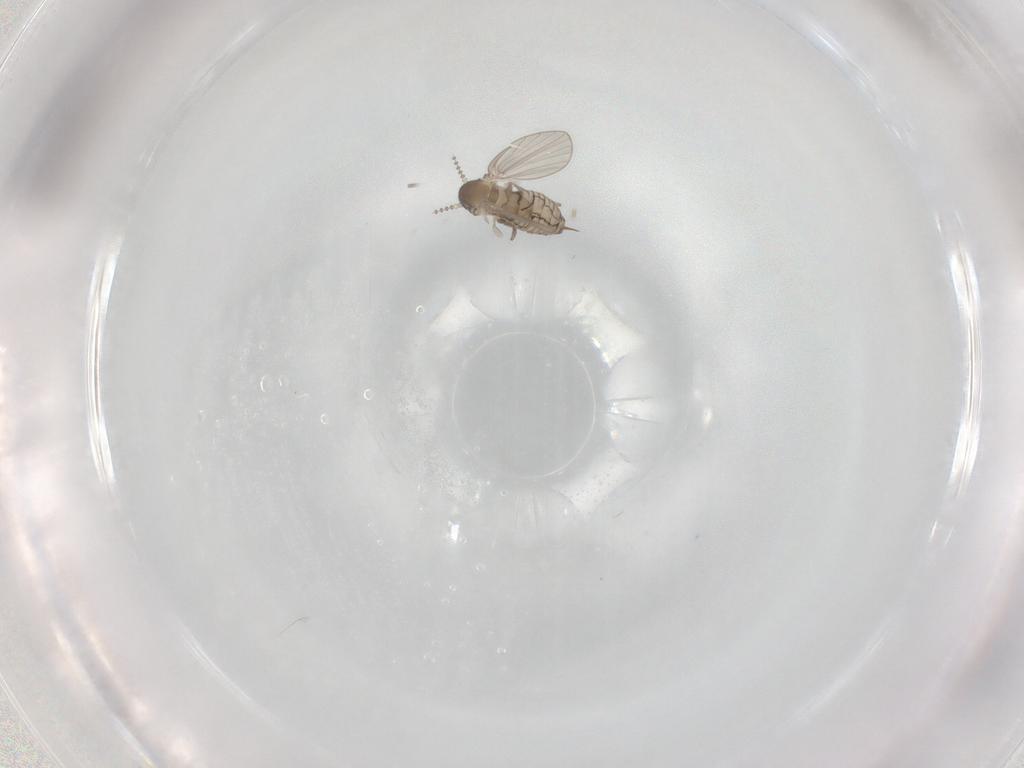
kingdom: Animalia
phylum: Arthropoda
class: Insecta
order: Diptera
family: Psychodidae
